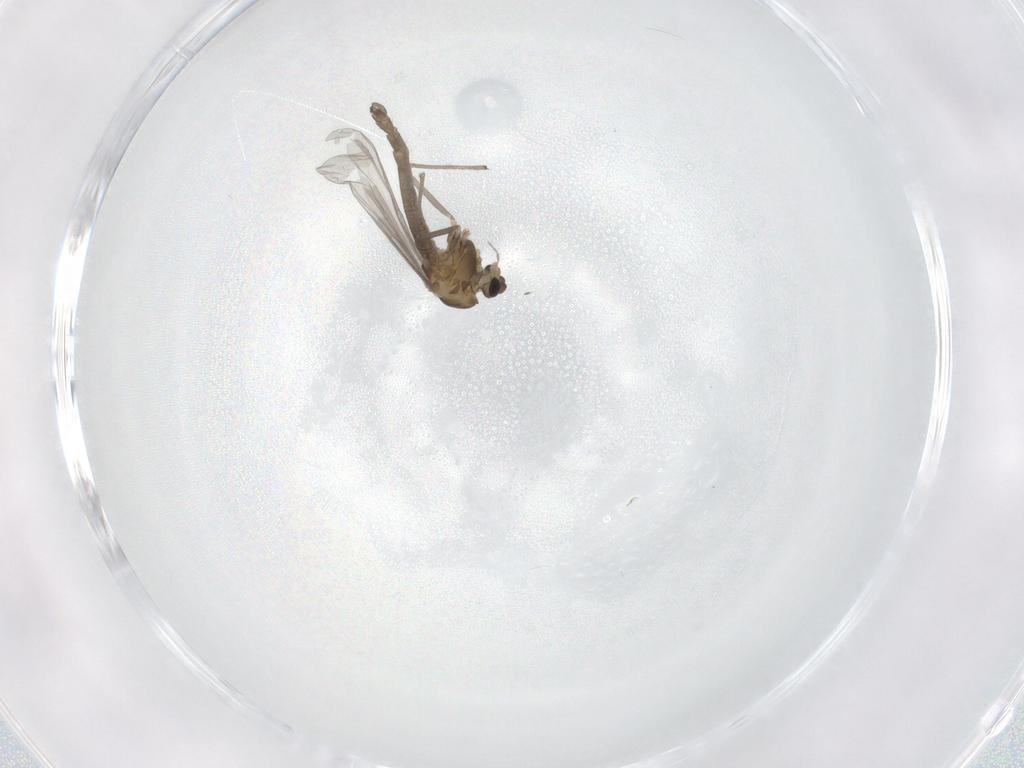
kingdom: Animalia
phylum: Arthropoda
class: Insecta
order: Diptera
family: Chironomidae
